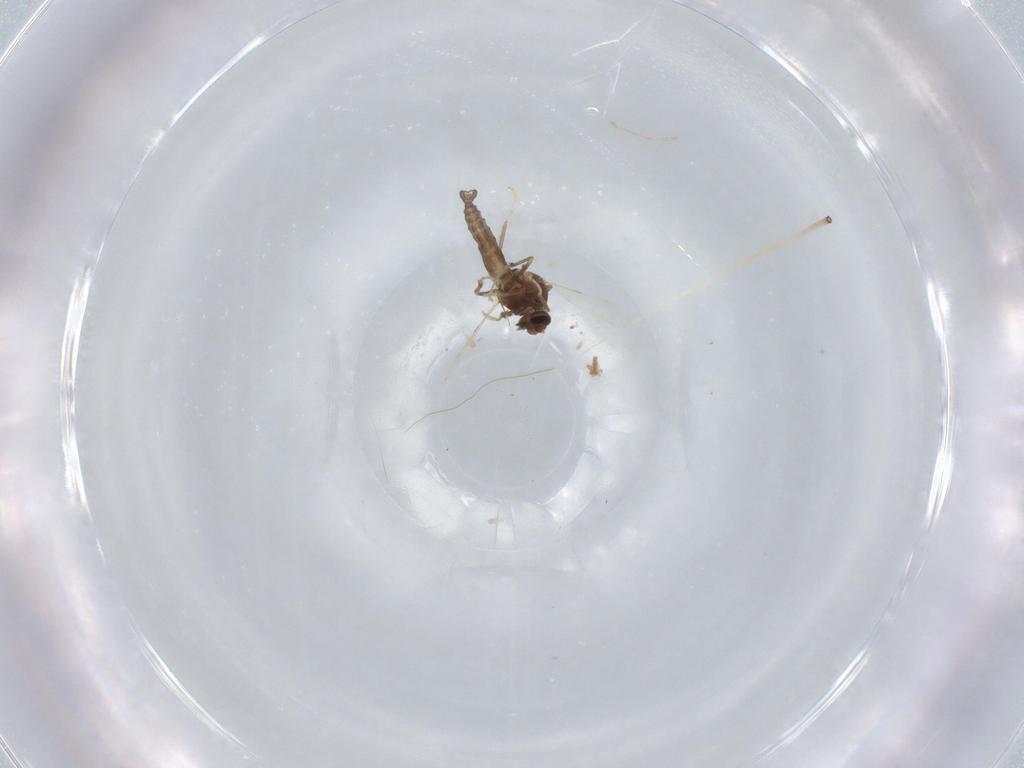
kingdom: Animalia
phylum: Arthropoda
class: Insecta
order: Diptera
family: Ceratopogonidae
